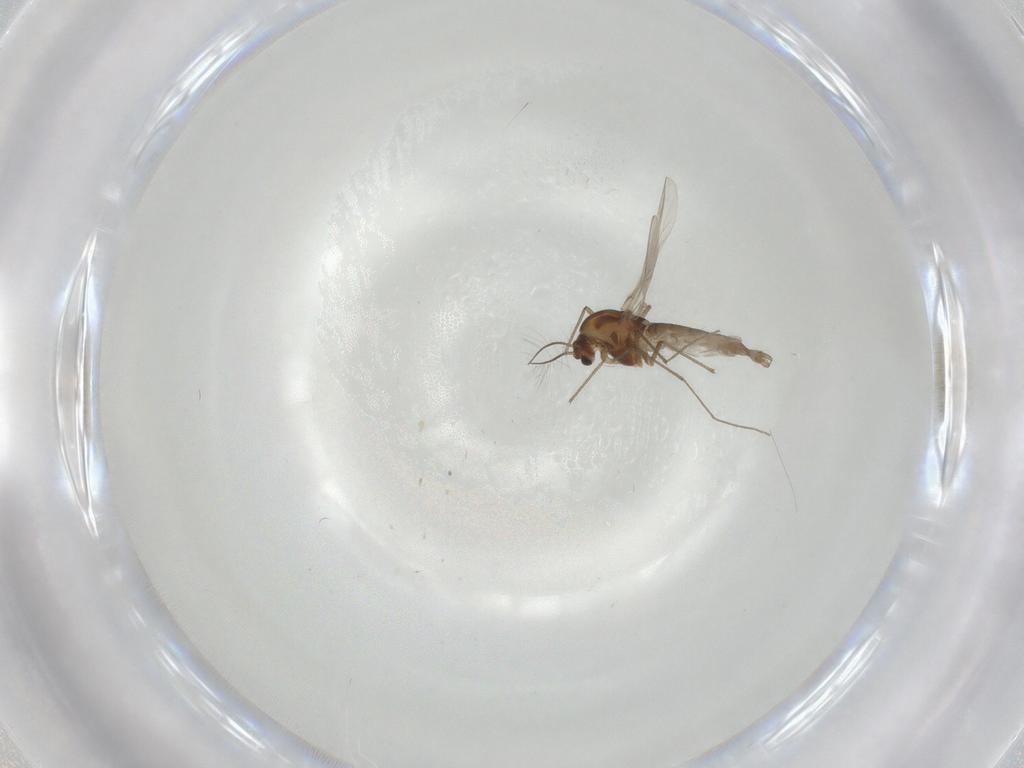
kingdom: Animalia
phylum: Arthropoda
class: Insecta
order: Diptera
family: Chironomidae
